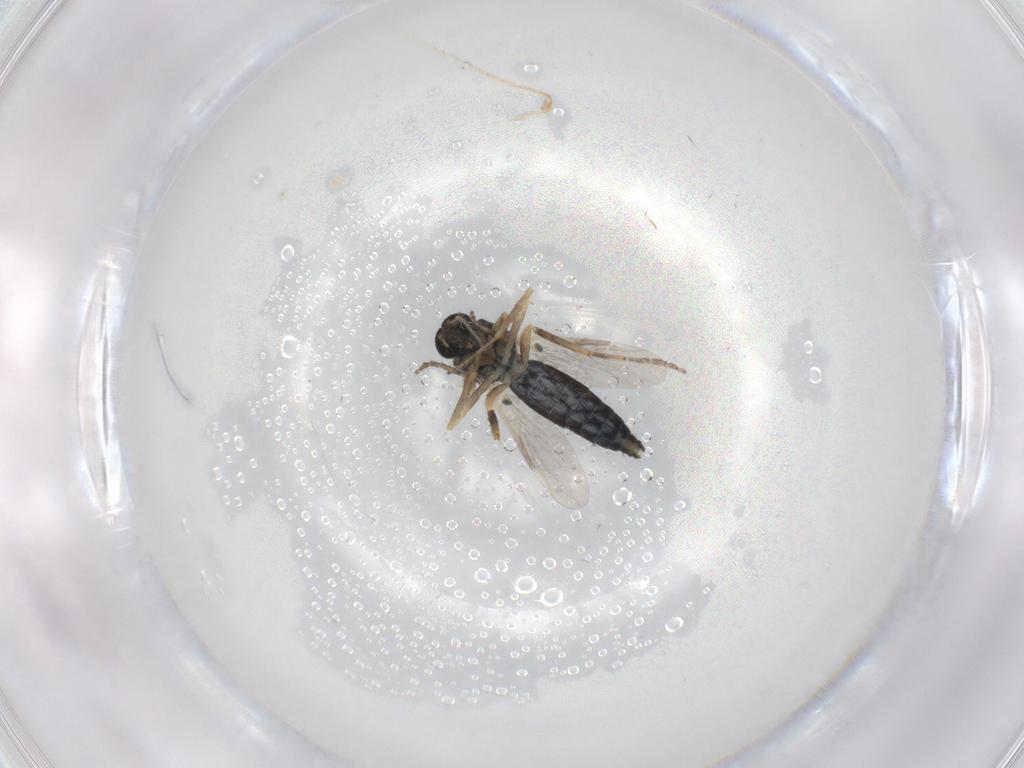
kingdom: Animalia
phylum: Arthropoda
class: Insecta
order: Diptera
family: Ceratopogonidae
